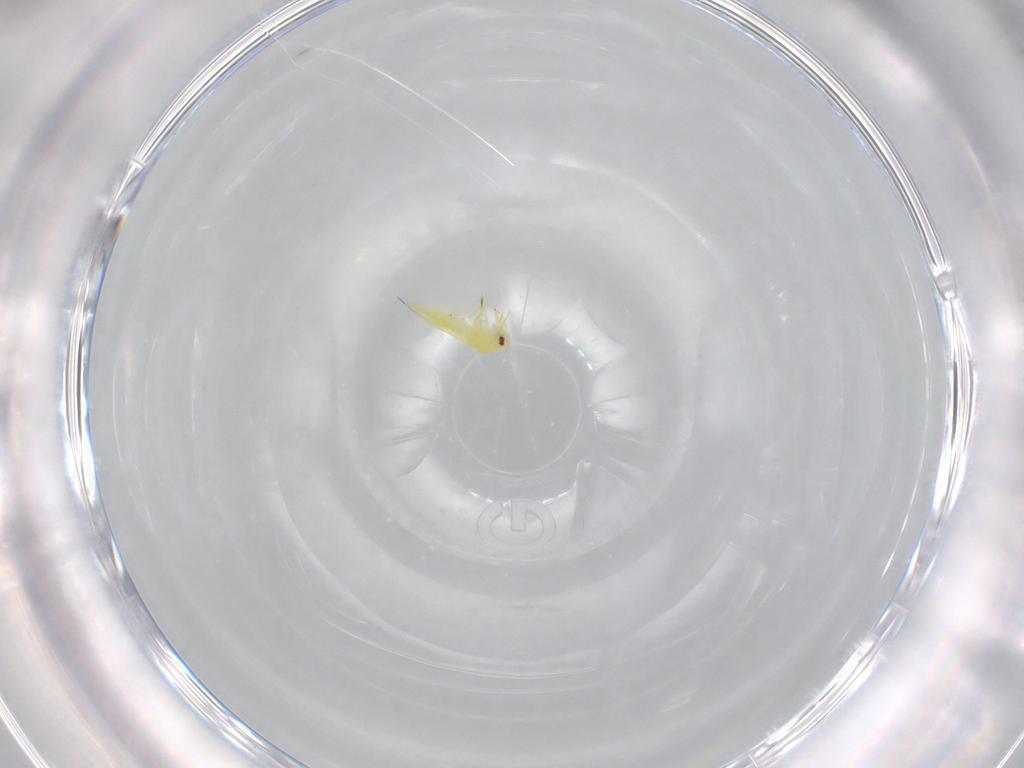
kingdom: Animalia
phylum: Arthropoda
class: Insecta
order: Hemiptera
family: Aleyrodidae
